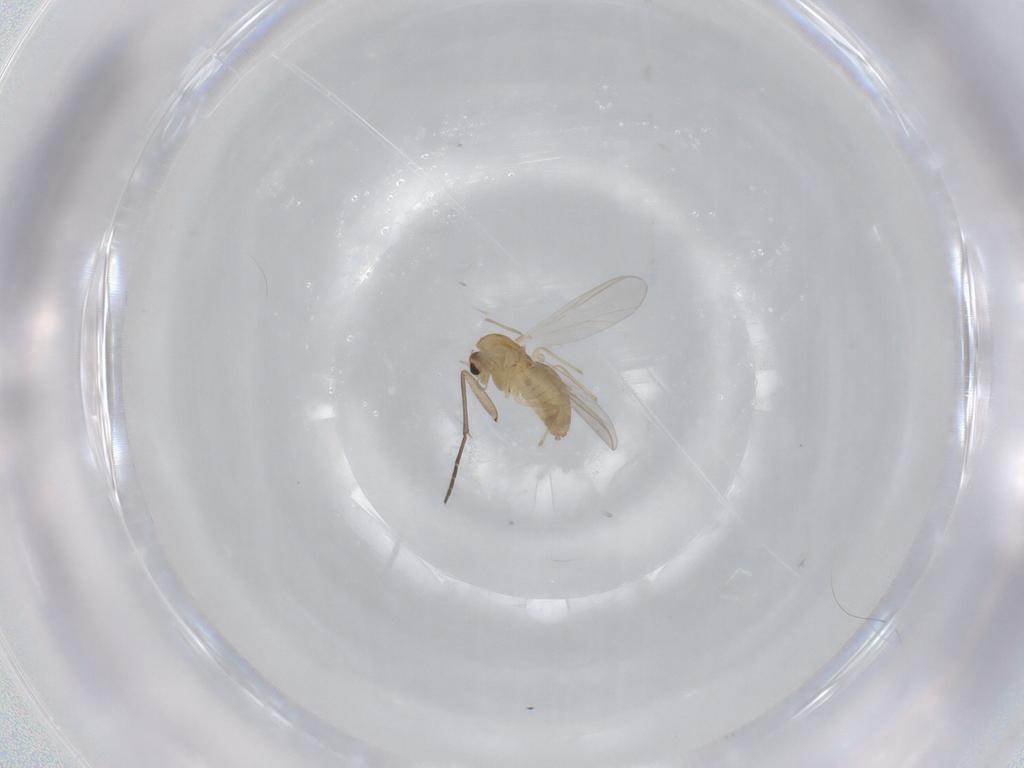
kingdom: Animalia
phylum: Arthropoda
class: Insecta
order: Diptera
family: Chironomidae
